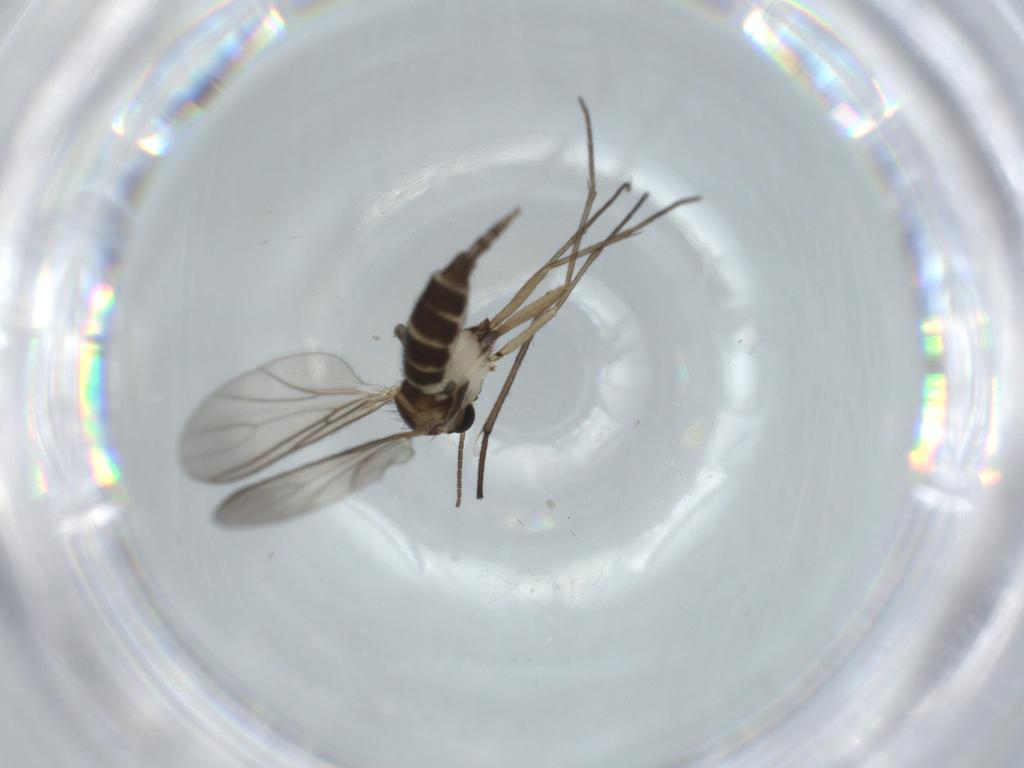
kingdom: Animalia
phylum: Arthropoda
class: Insecta
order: Diptera
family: Sciaridae
